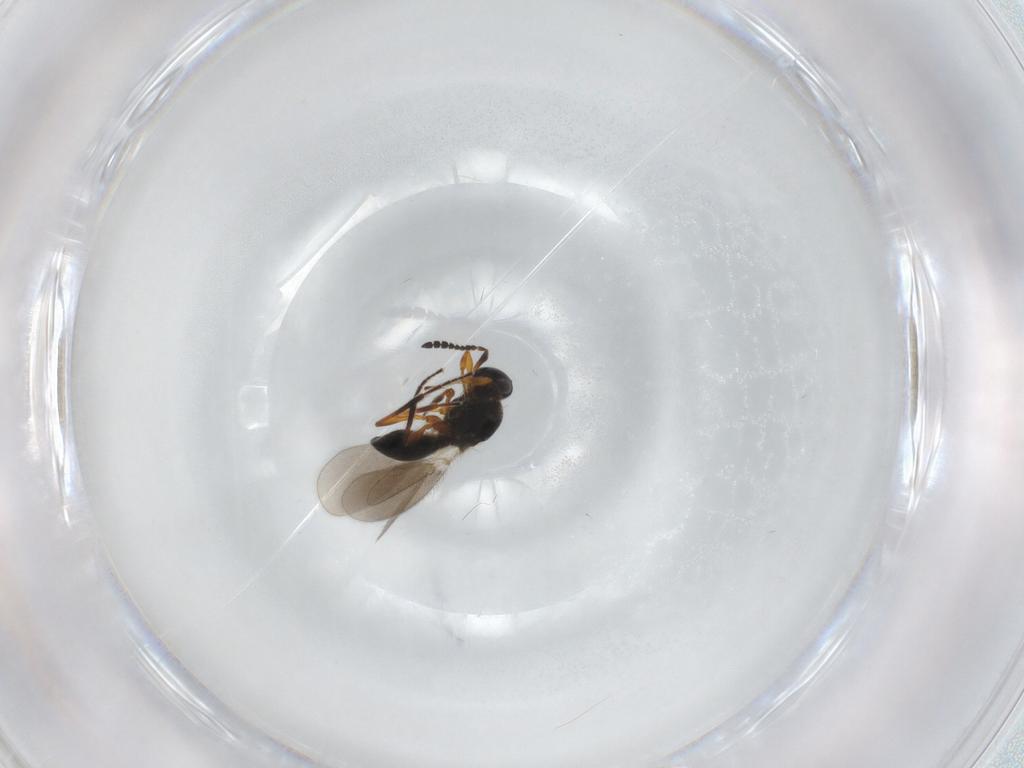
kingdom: Animalia
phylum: Arthropoda
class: Insecta
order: Hymenoptera
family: Platygastridae
